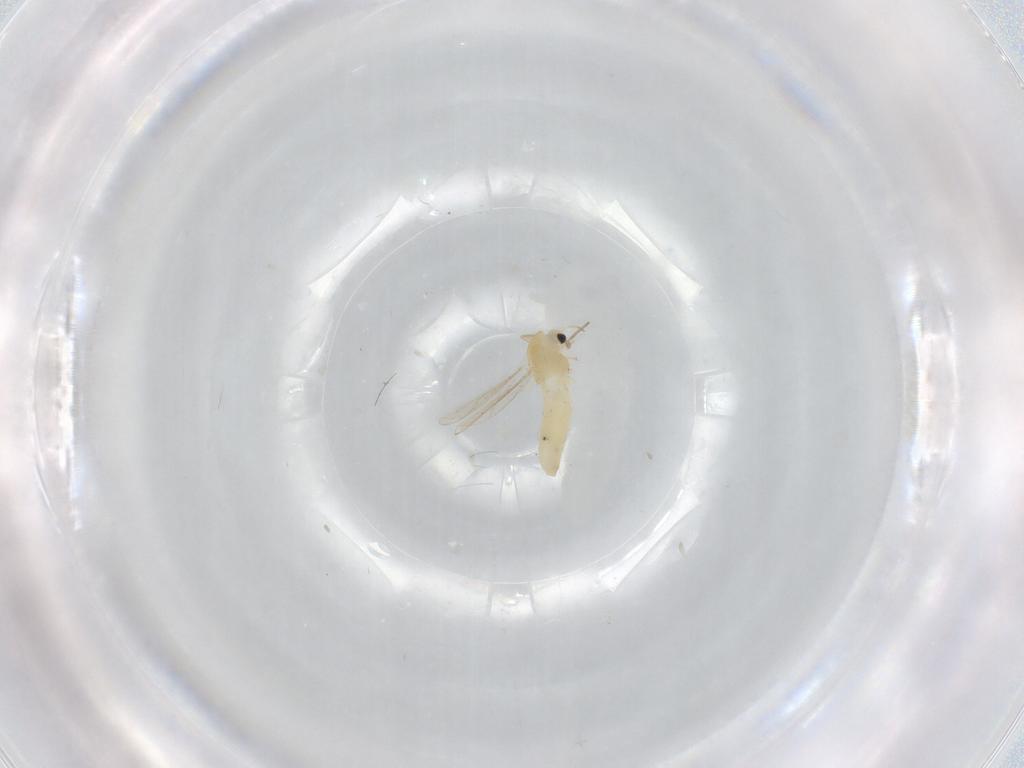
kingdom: Animalia
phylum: Arthropoda
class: Insecta
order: Diptera
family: Chironomidae
